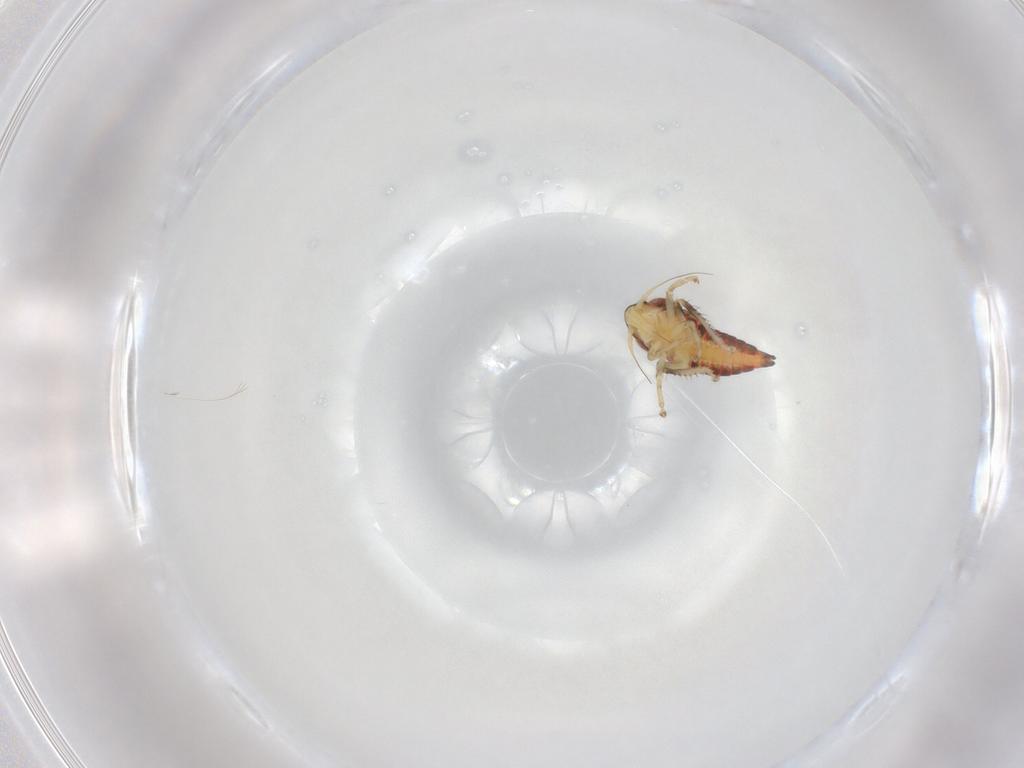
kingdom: Animalia
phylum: Arthropoda
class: Insecta
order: Hemiptera
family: Cicadellidae
